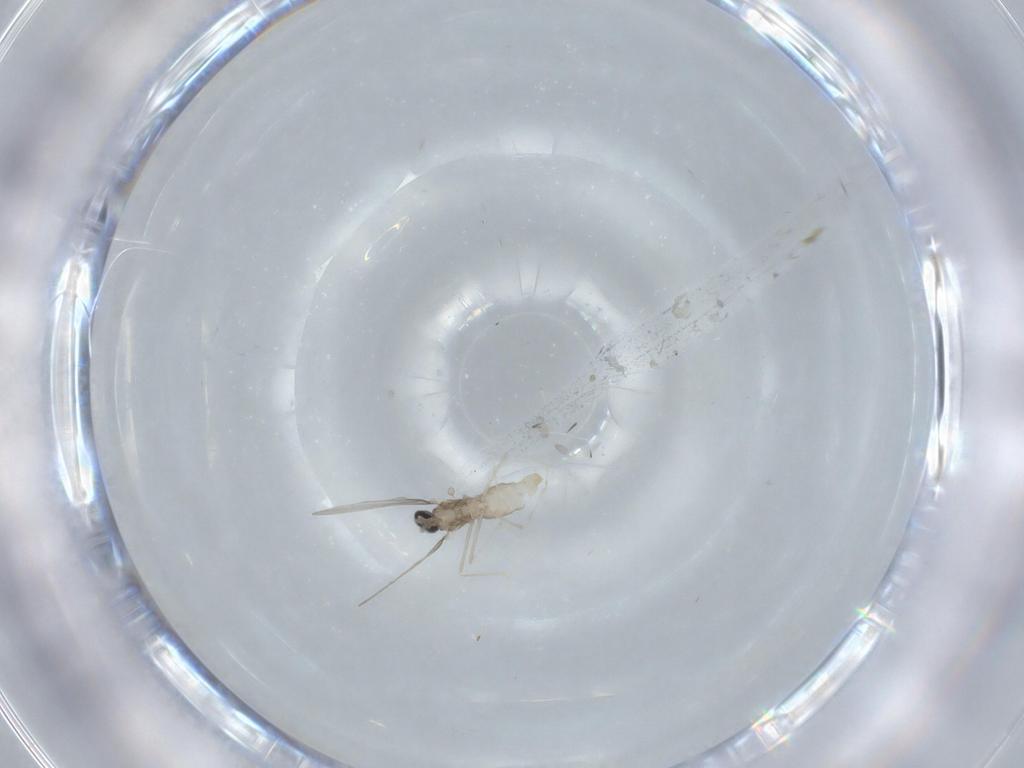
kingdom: Animalia
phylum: Arthropoda
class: Insecta
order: Diptera
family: Cecidomyiidae
